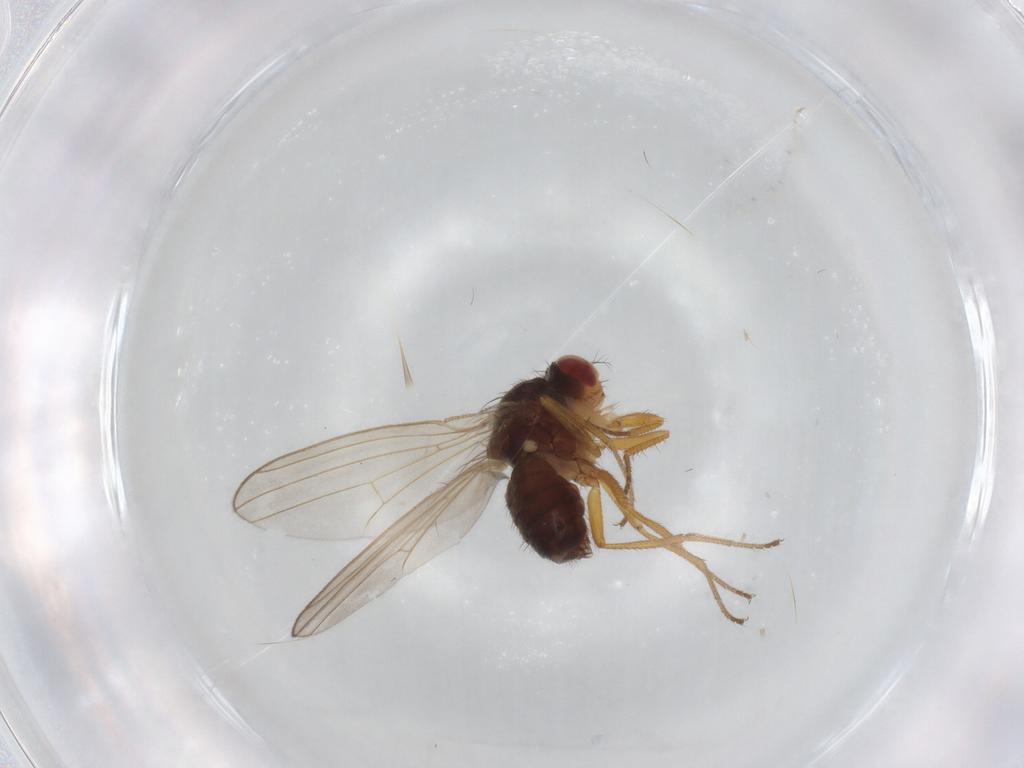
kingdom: Animalia
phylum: Arthropoda
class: Insecta
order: Diptera
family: Drosophilidae
